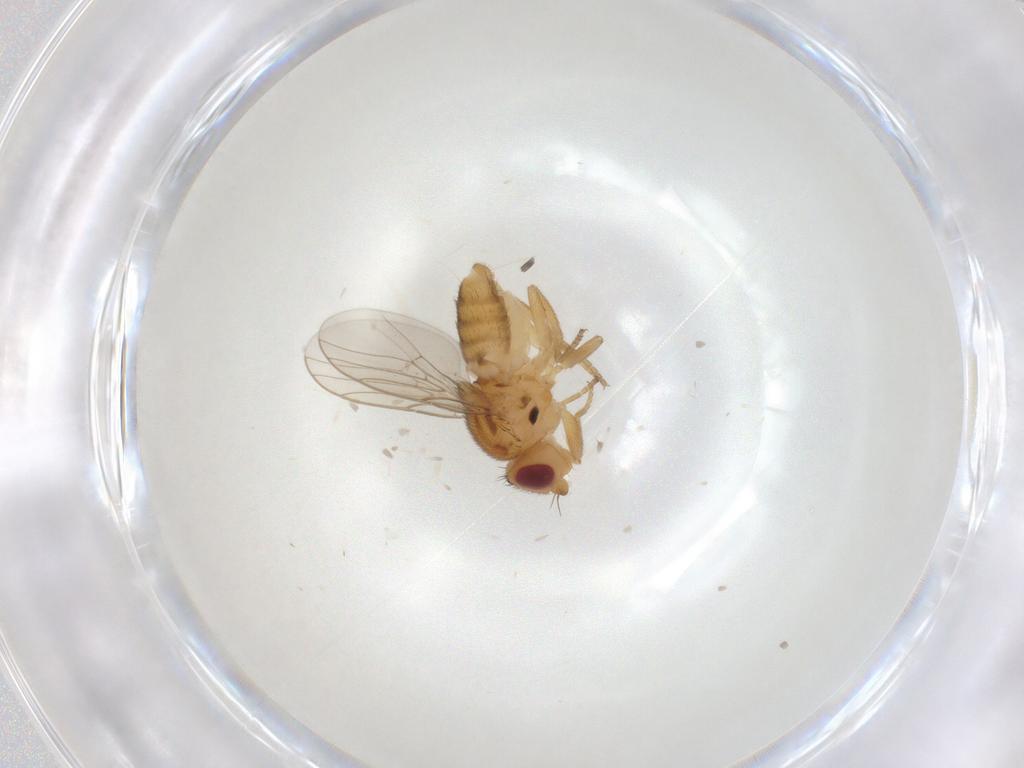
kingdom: Animalia
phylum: Arthropoda
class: Insecta
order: Diptera
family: Chloropidae
